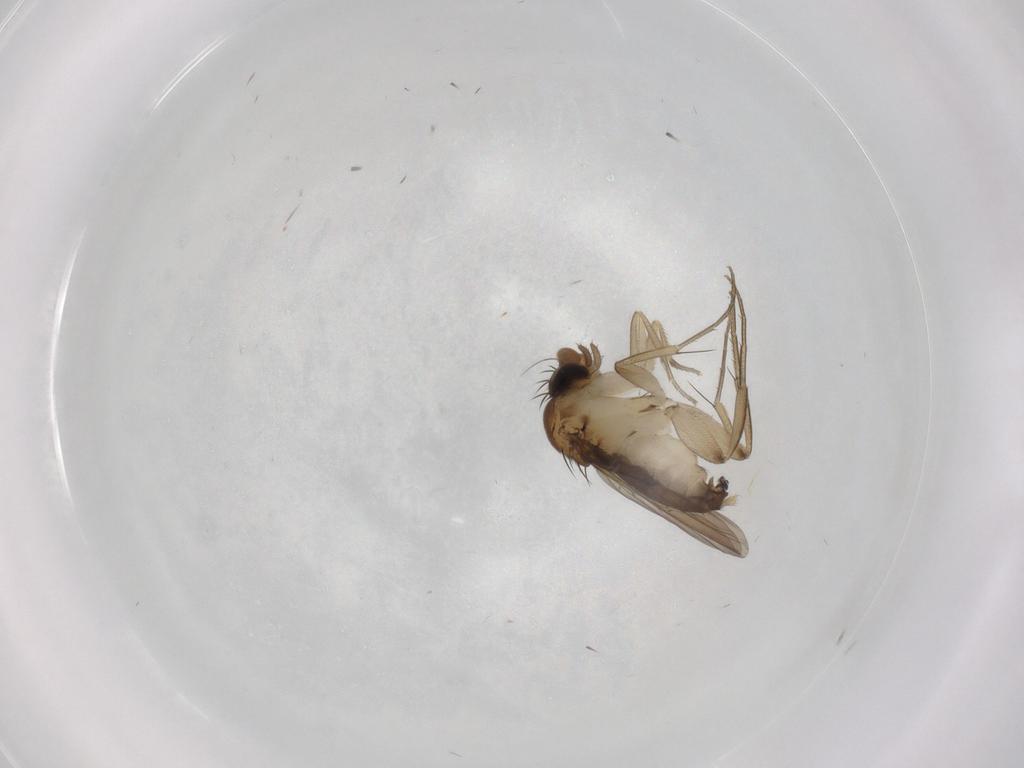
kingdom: Animalia
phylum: Arthropoda
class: Insecta
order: Diptera
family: Phoridae
